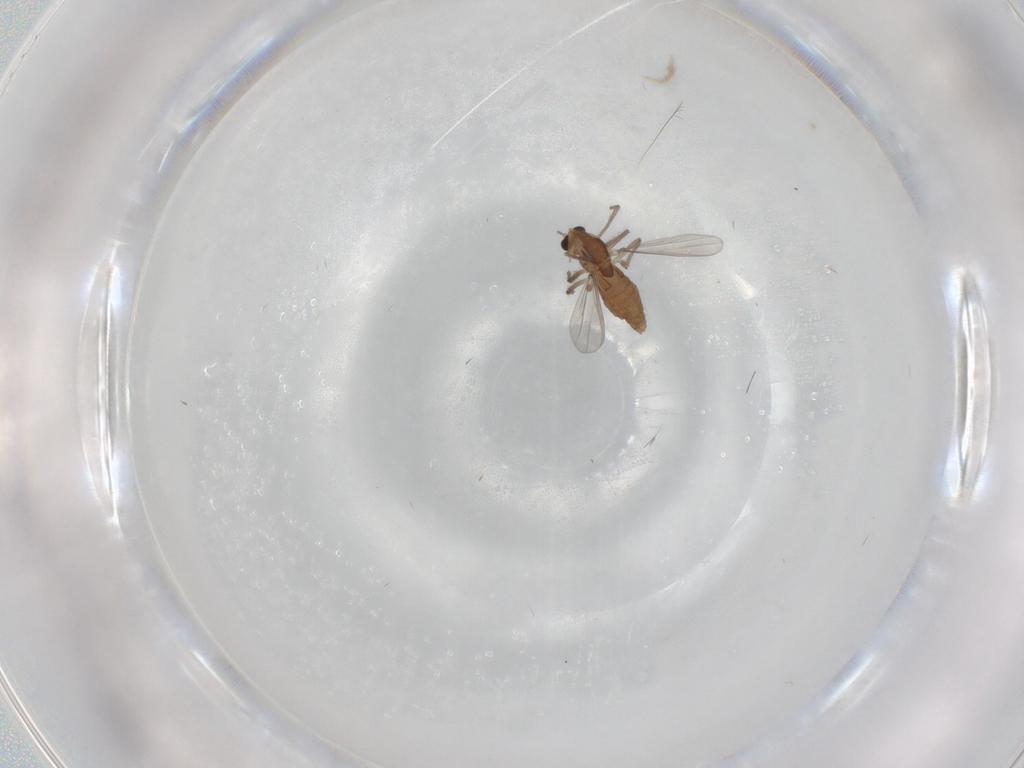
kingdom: Animalia
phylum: Arthropoda
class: Insecta
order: Diptera
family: Chironomidae
